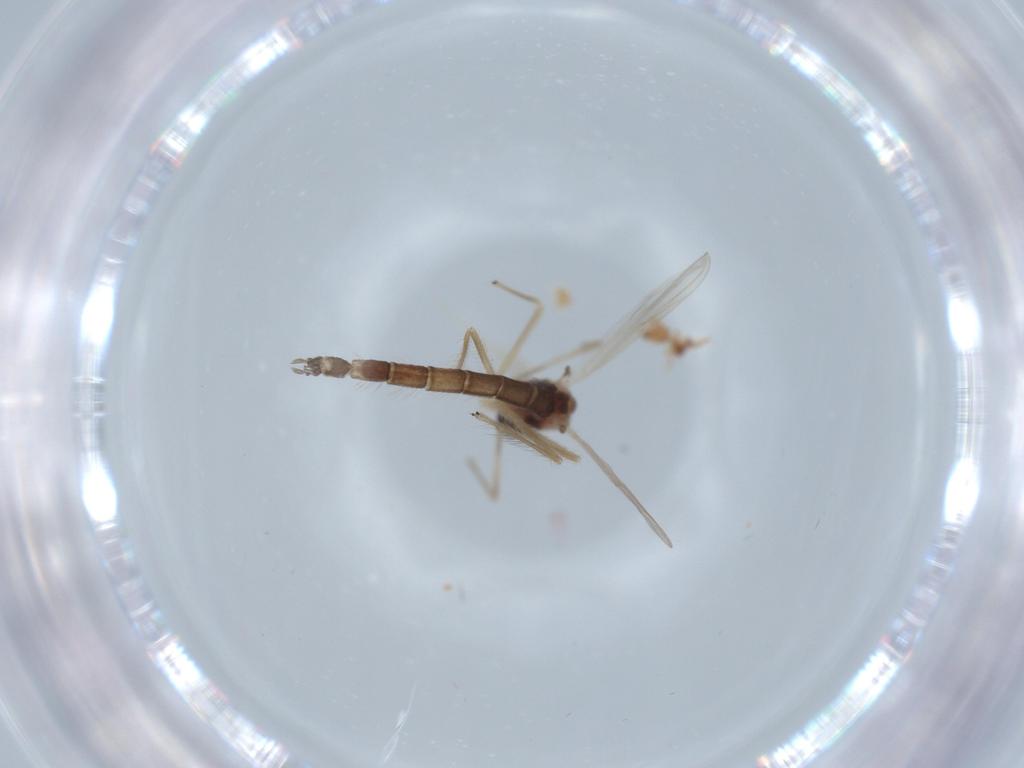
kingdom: Animalia
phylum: Arthropoda
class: Insecta
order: Diptera
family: Chironomidae
